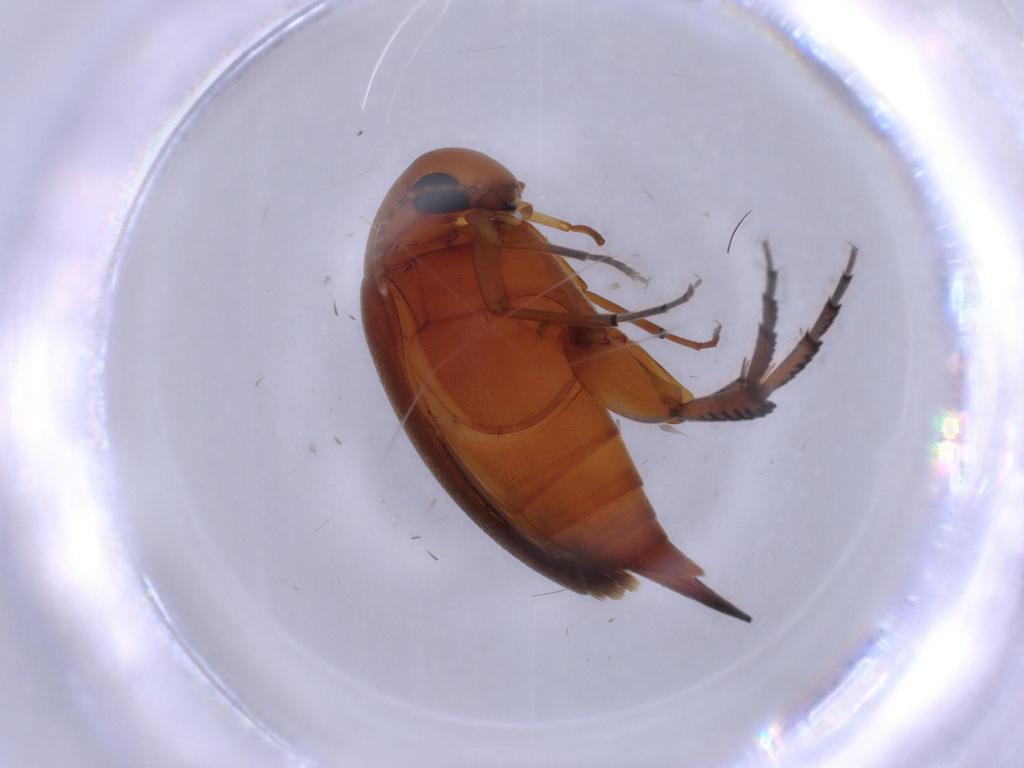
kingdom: Animalia
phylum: Arthropoda
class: Insecta
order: Coleoptera
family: Mordellidae
